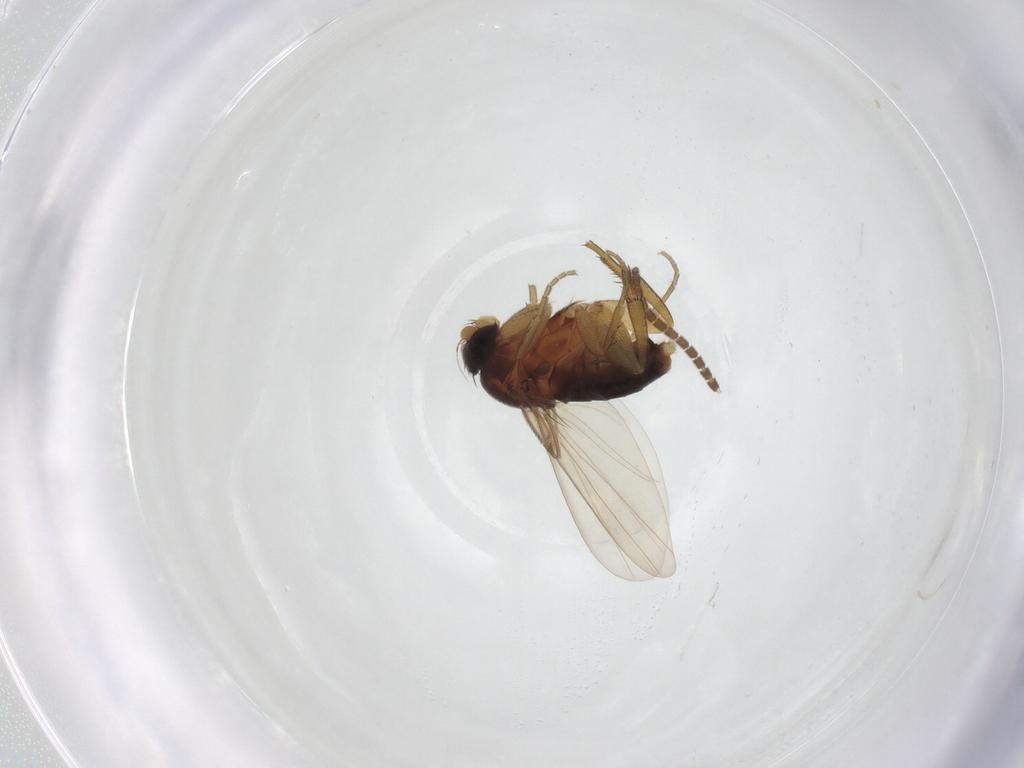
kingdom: Animalia
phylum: Arthropoda
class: Insecta
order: Diptera
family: Phoridae
